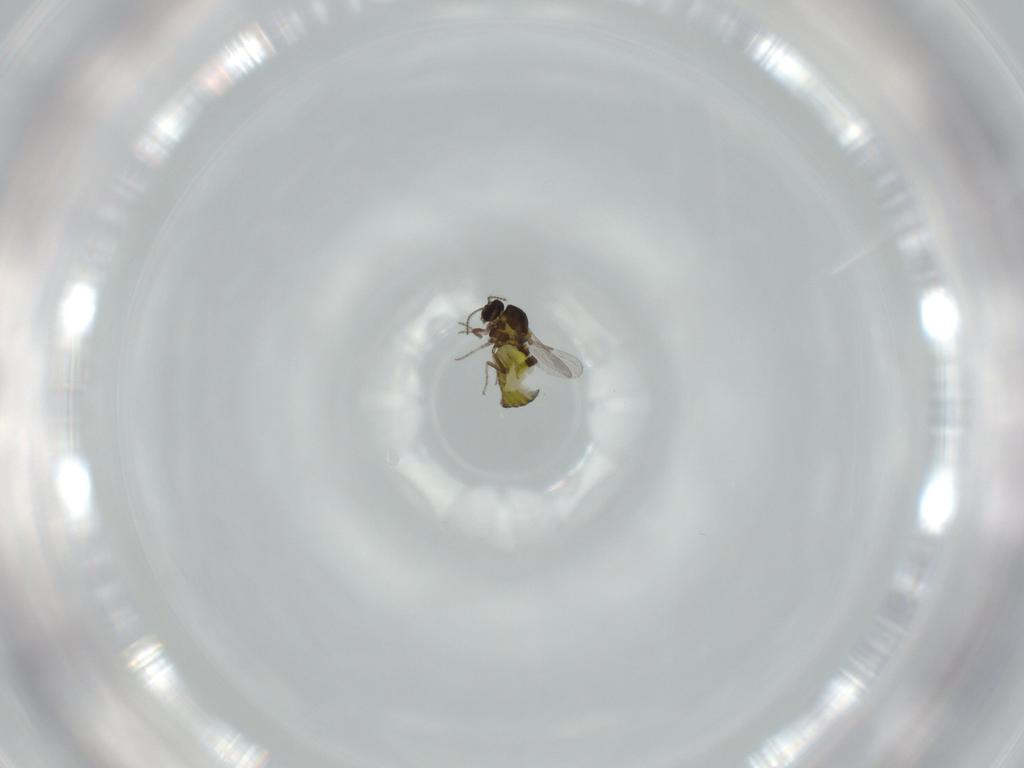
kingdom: Animalia
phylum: Arthropoda
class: Insecta
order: Diptera
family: Ceratopogonidae
